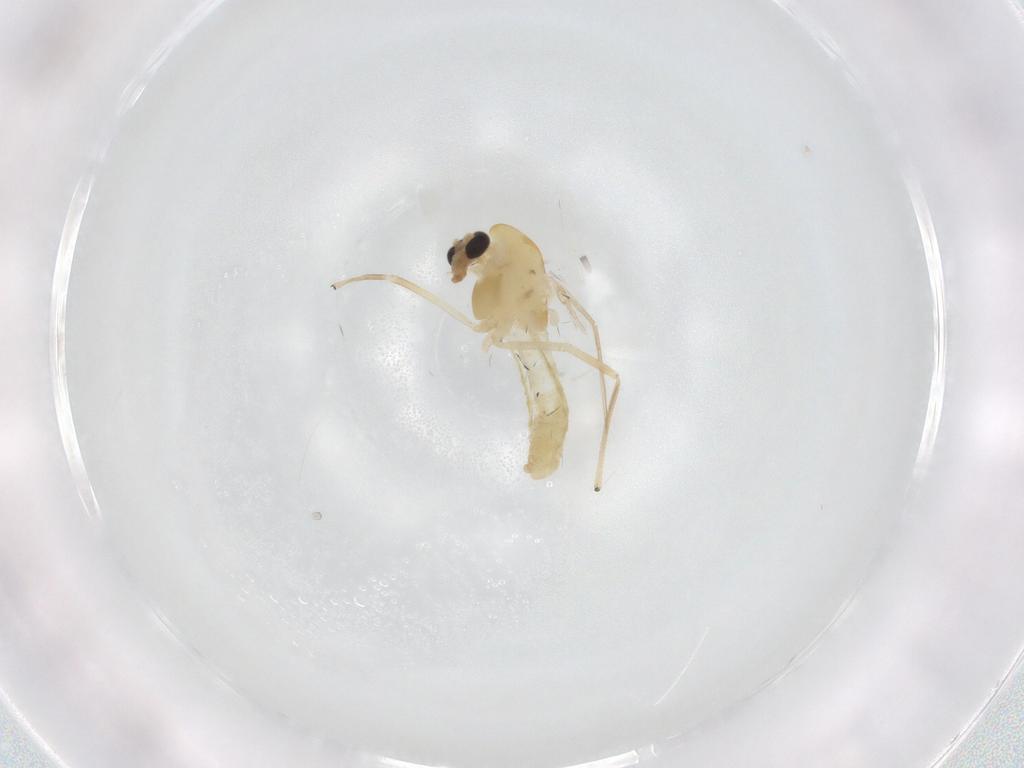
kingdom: Animalia
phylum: Arthropoda
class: Insecta
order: Diptera
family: Chironomidae
